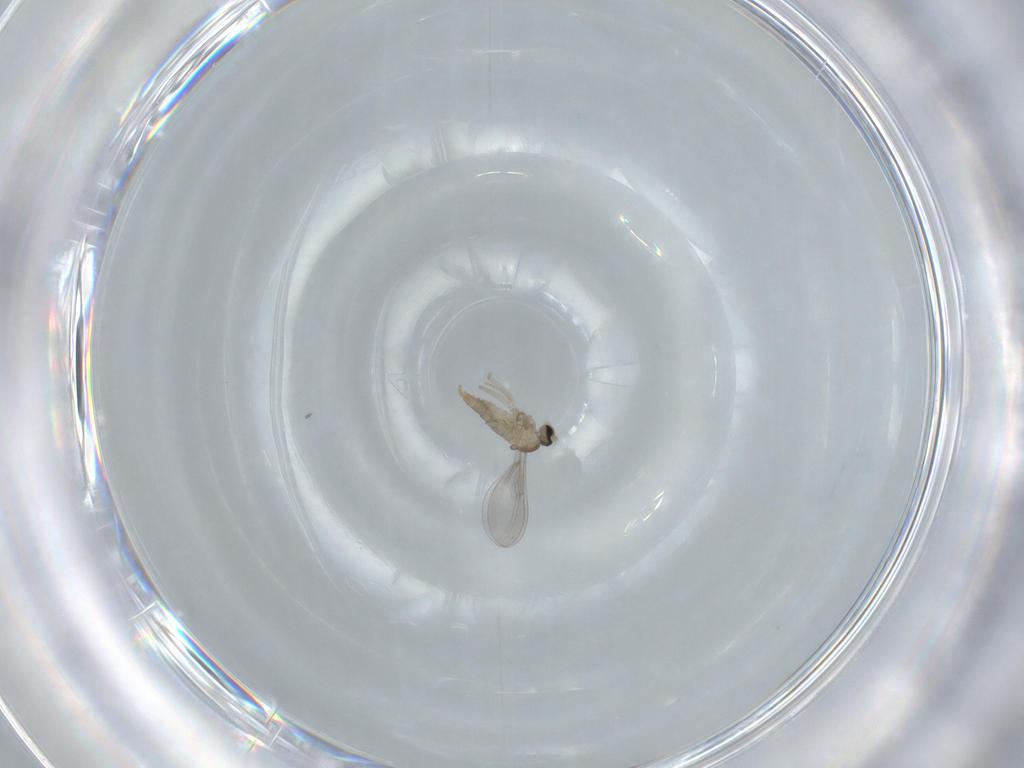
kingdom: Animalia
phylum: Arthropoda
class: Insecta
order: Diptera
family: Cecidomyiidae
